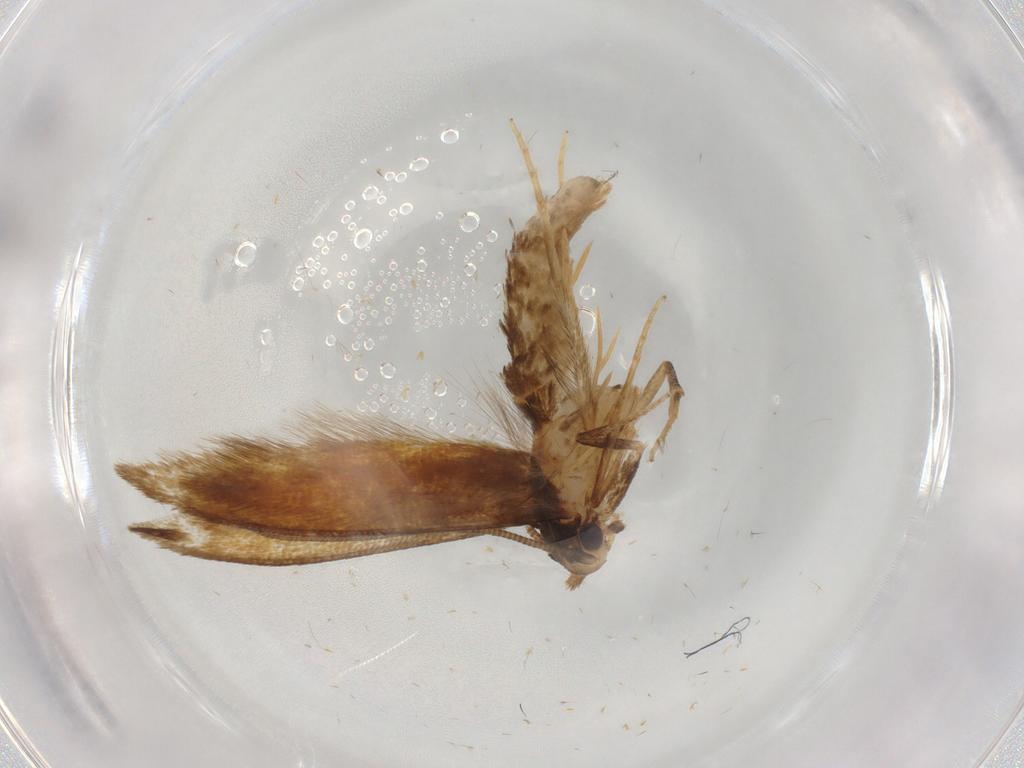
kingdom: Animalia
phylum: Arthropoda
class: Insecta
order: Lepidoptera
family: Tineidae
